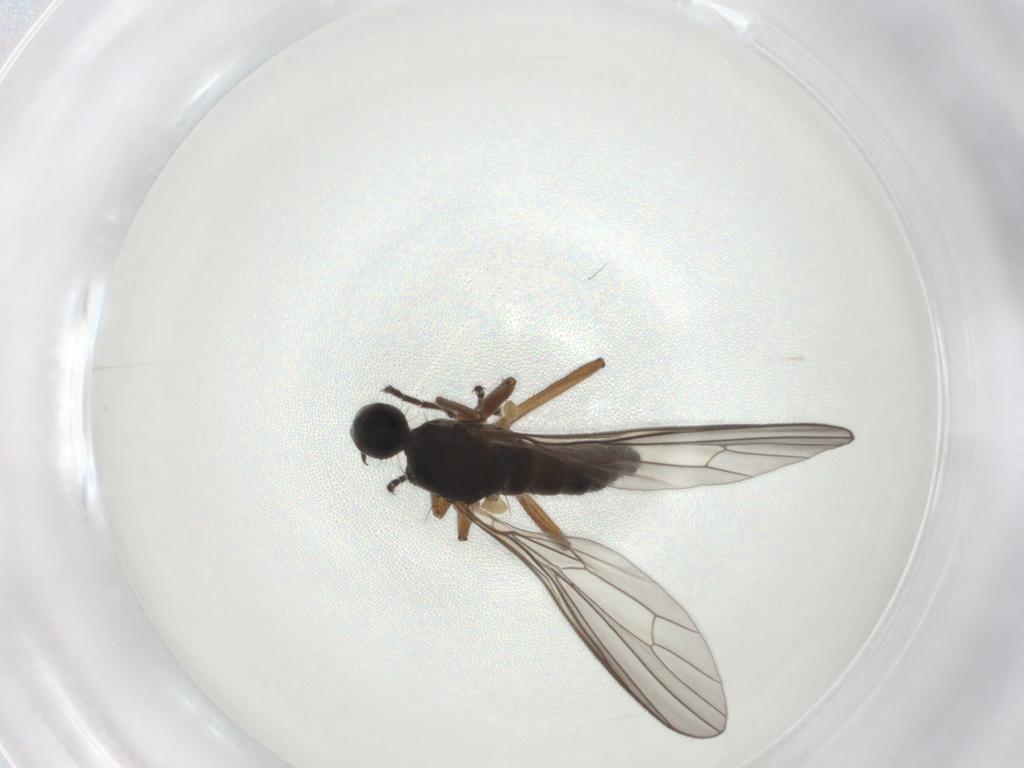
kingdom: Animalia
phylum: Arthropoda
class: Insecta
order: Diptera
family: Empididae
